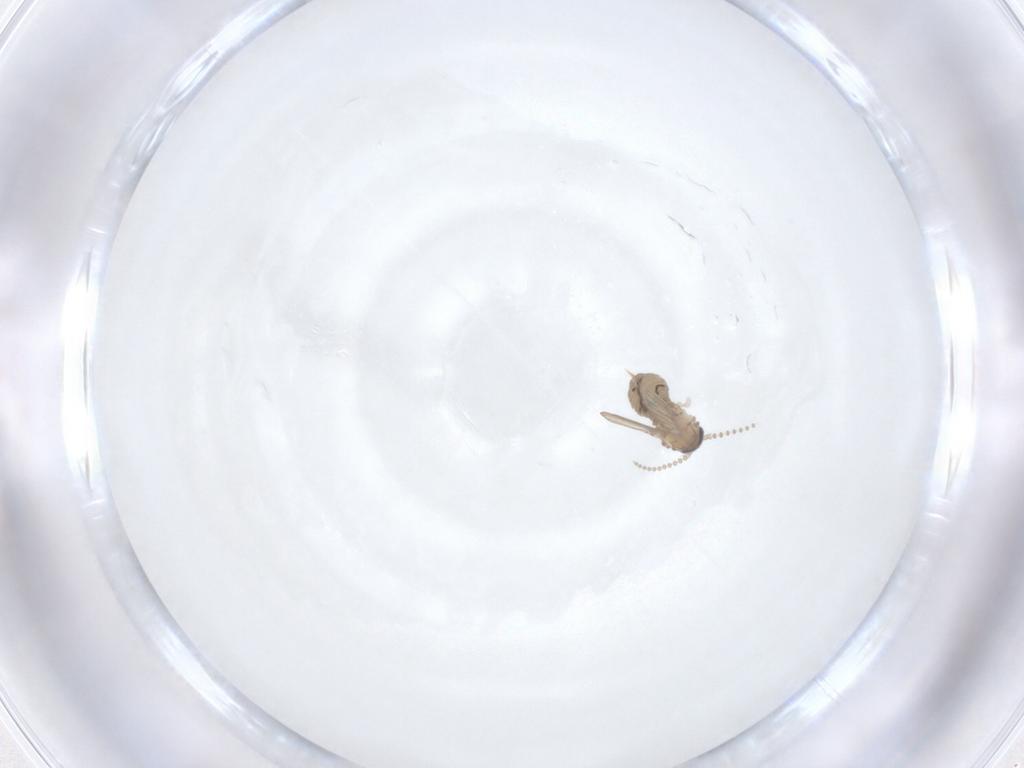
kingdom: Animalia
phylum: Arthropoda
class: Insecta
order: Diptera
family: Psychodidae
